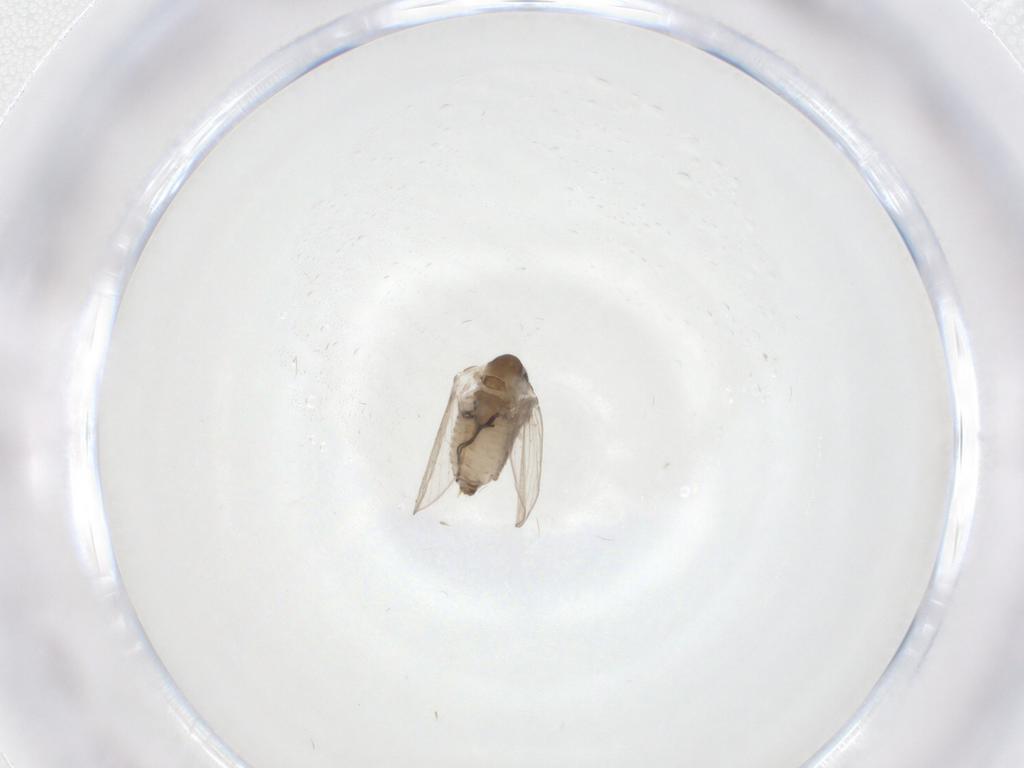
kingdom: Animalia
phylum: Arthropoda
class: Insecta
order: Diptera
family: Psychodidae
